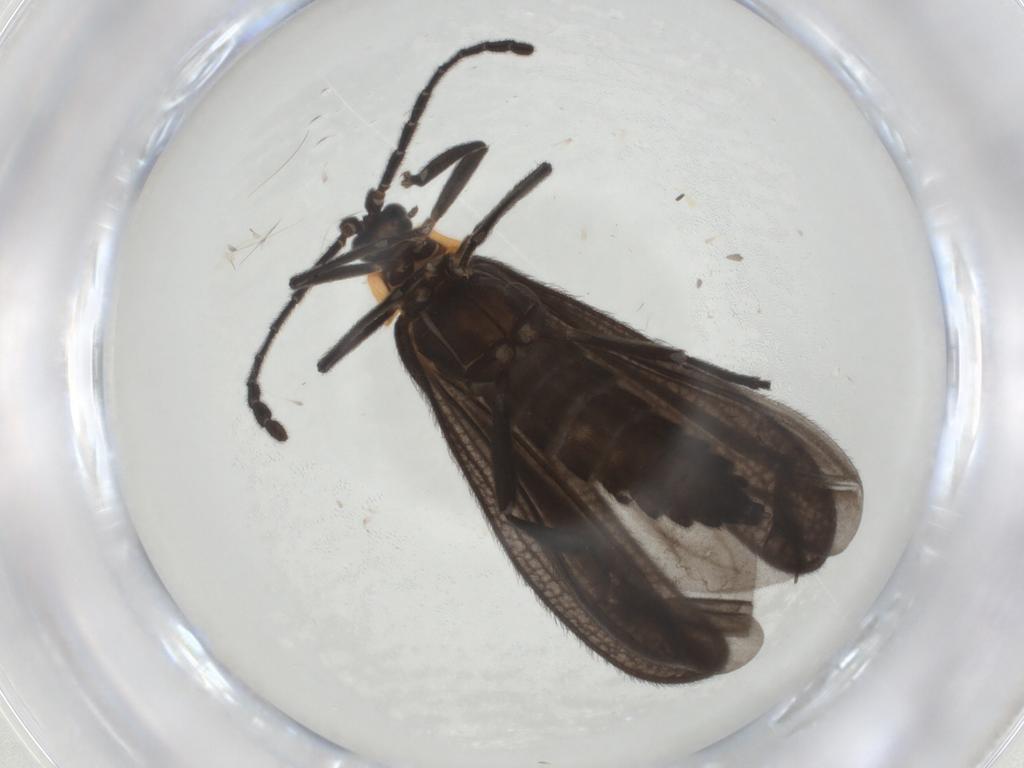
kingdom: Animalia
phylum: Arthropoda
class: Insecta
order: Coleoptera
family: Lycidae
